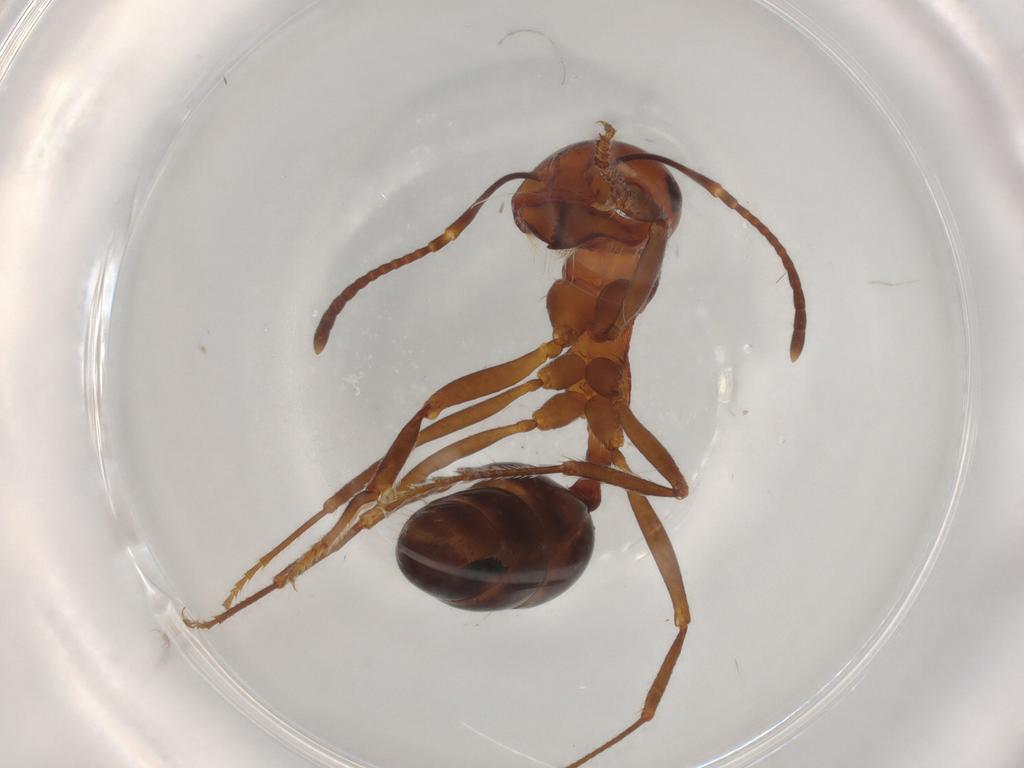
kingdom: Animalia
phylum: Arthropoda
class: Insecta
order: Hymenoptera
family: Formicidae
